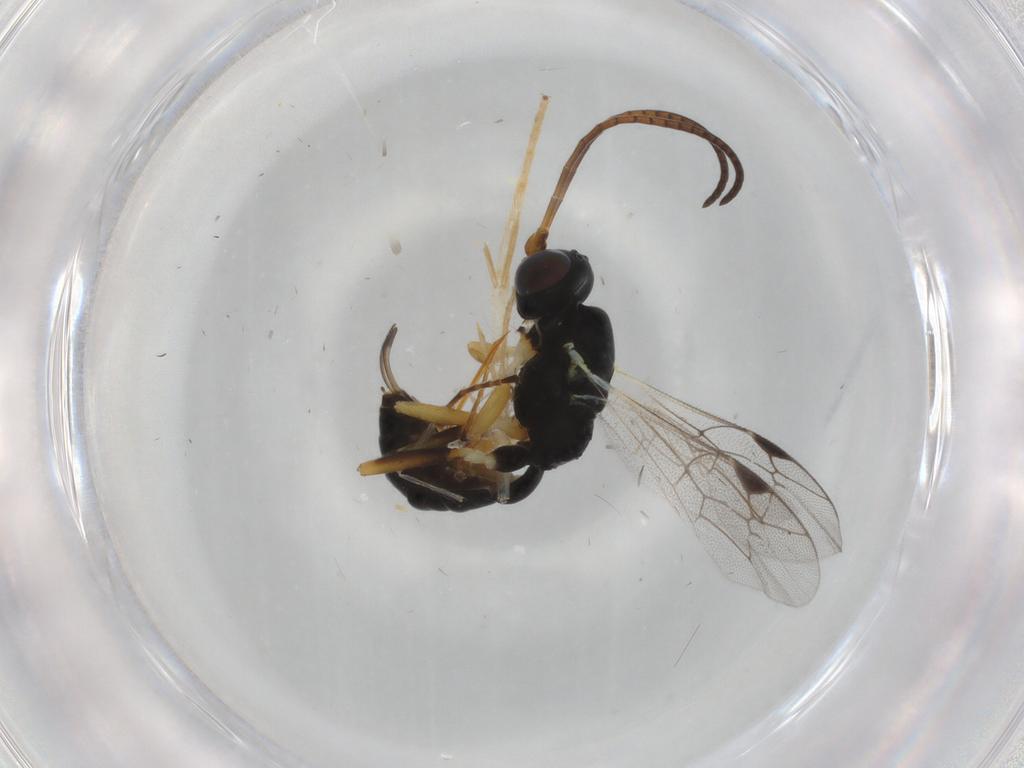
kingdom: Animalia
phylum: Arthropoda
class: Insecta
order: Hymenoptera
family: Ichneumonidae
